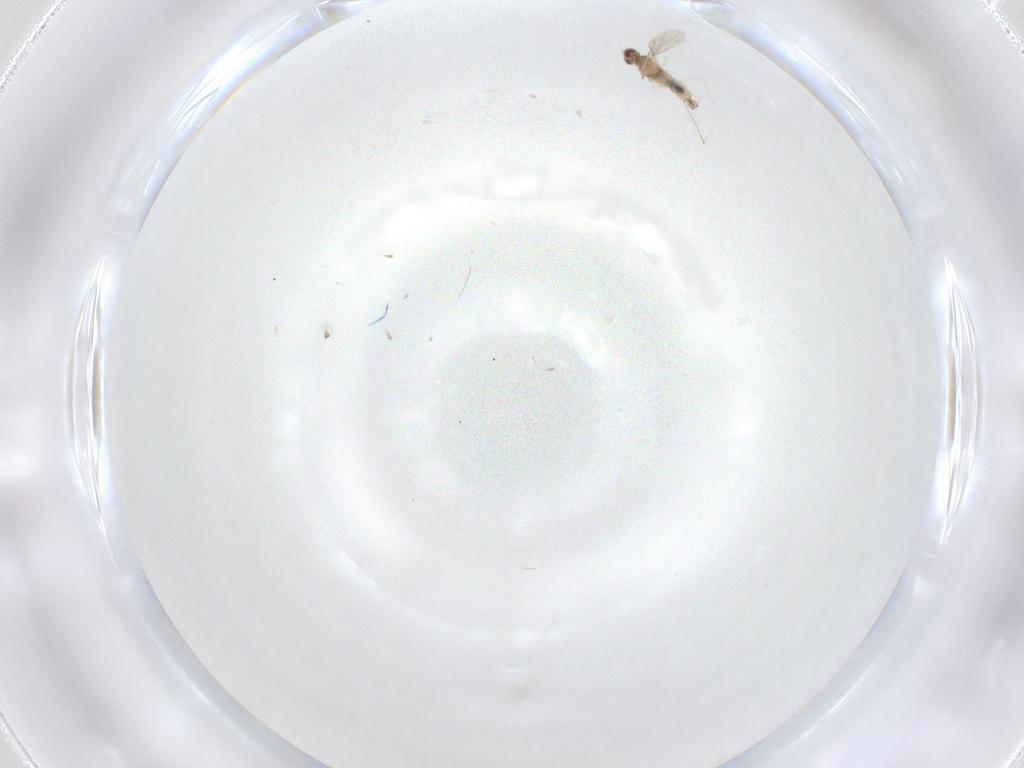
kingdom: Animalia
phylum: Arthropoda
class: Insecta
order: Diptera
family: Cecidomyiidae
